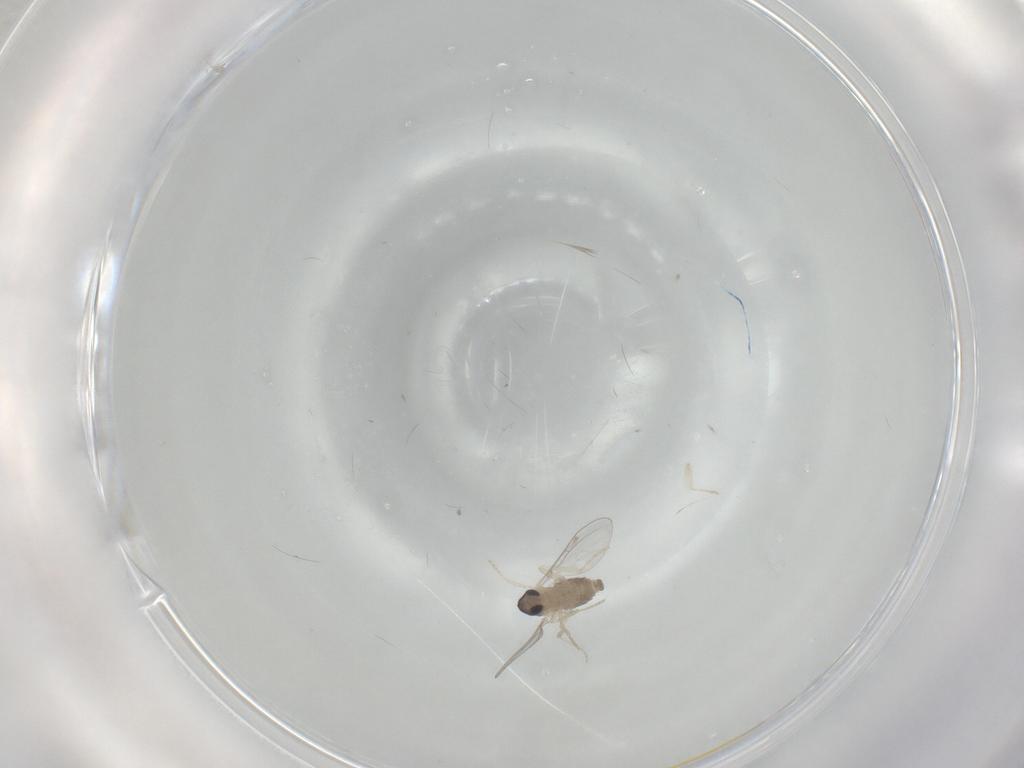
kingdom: Animalia
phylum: Arthropoda
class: Insecta
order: Diptera
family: Cecidomyiidae
